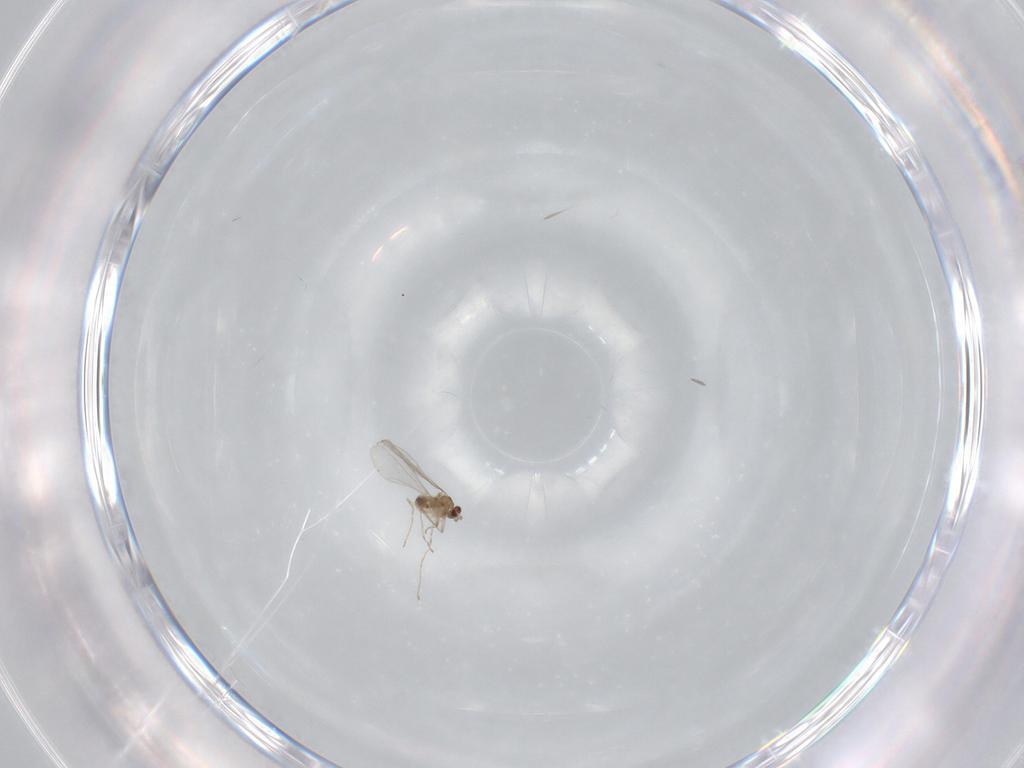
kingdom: Animalia
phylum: Arthropoda
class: Insecta
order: Diptera
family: Cecidomyiidae
